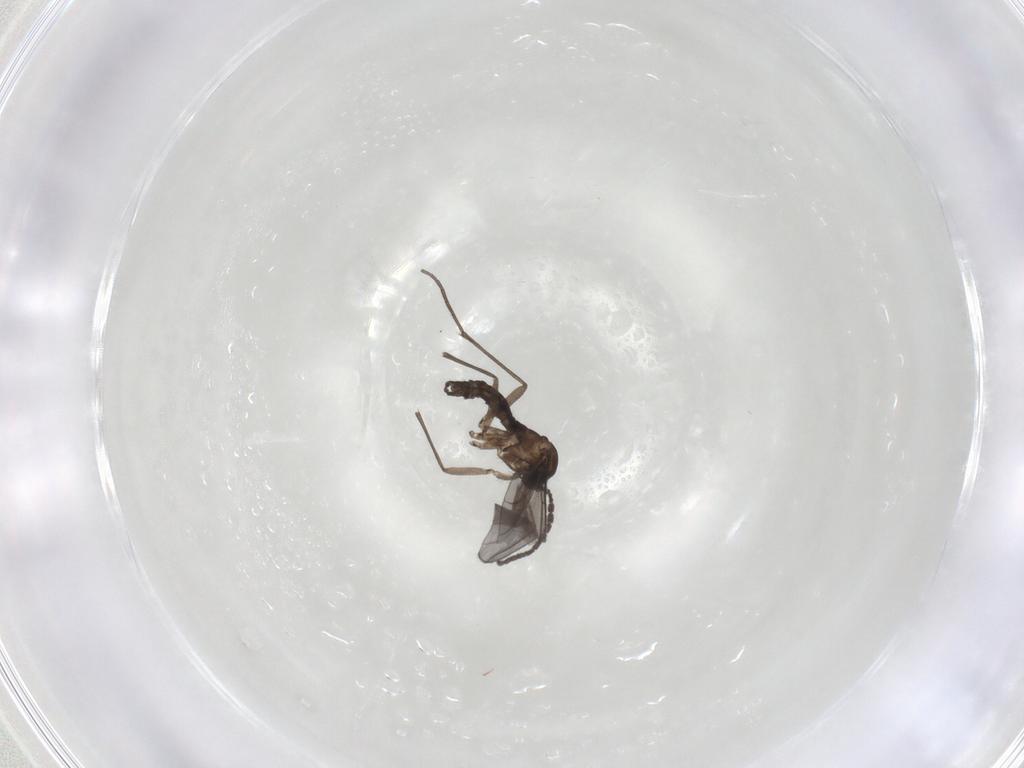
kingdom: Animalia
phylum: Arthropoda
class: Insecta
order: Diptera
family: Sciaridae
